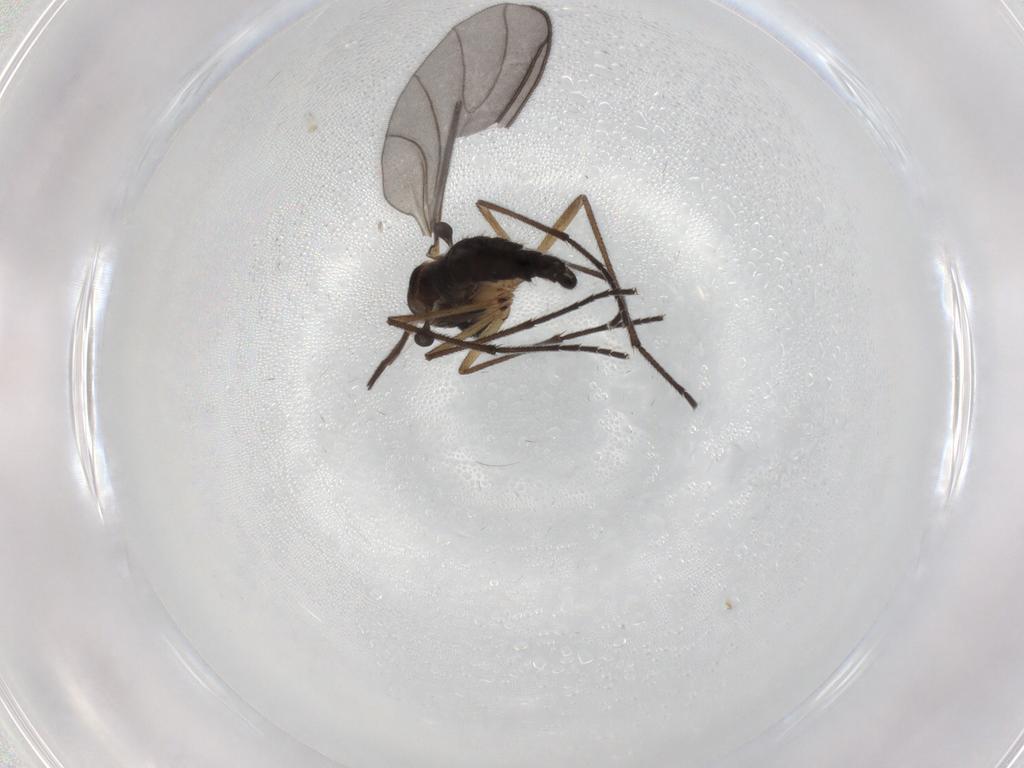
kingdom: Animalia
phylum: Arthropoda
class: Insecta
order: Diptera
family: Sciaridae
